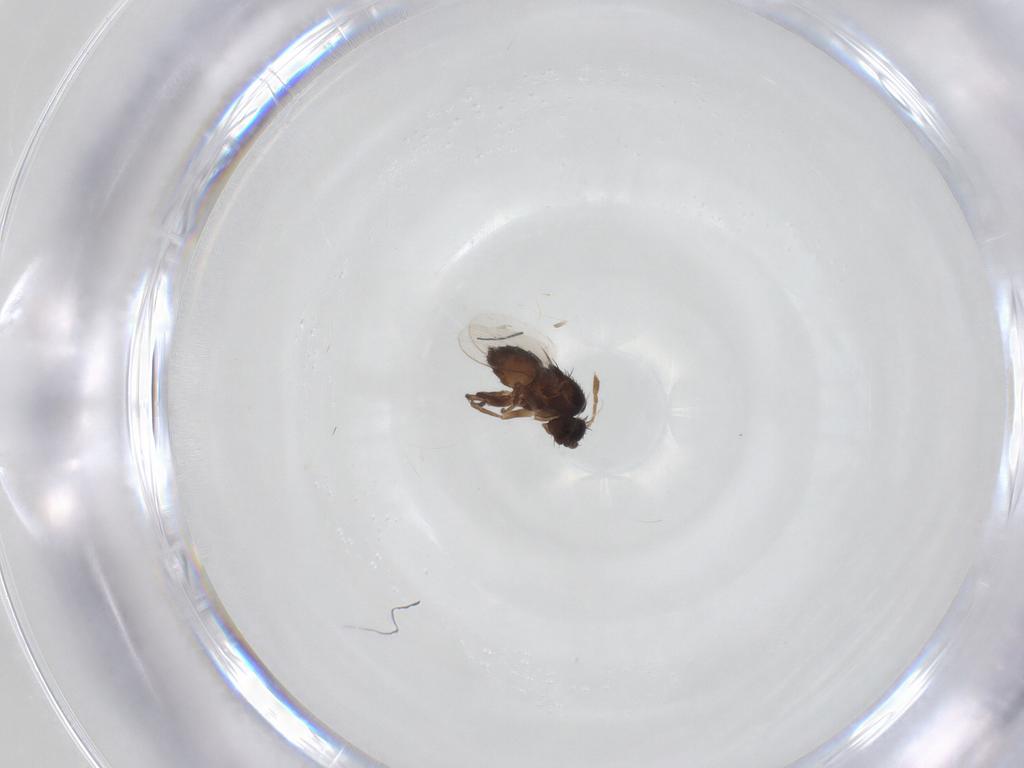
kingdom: Animalia
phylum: Arthropoda
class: Insecta
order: Diptera
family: Sphaeroceridae
